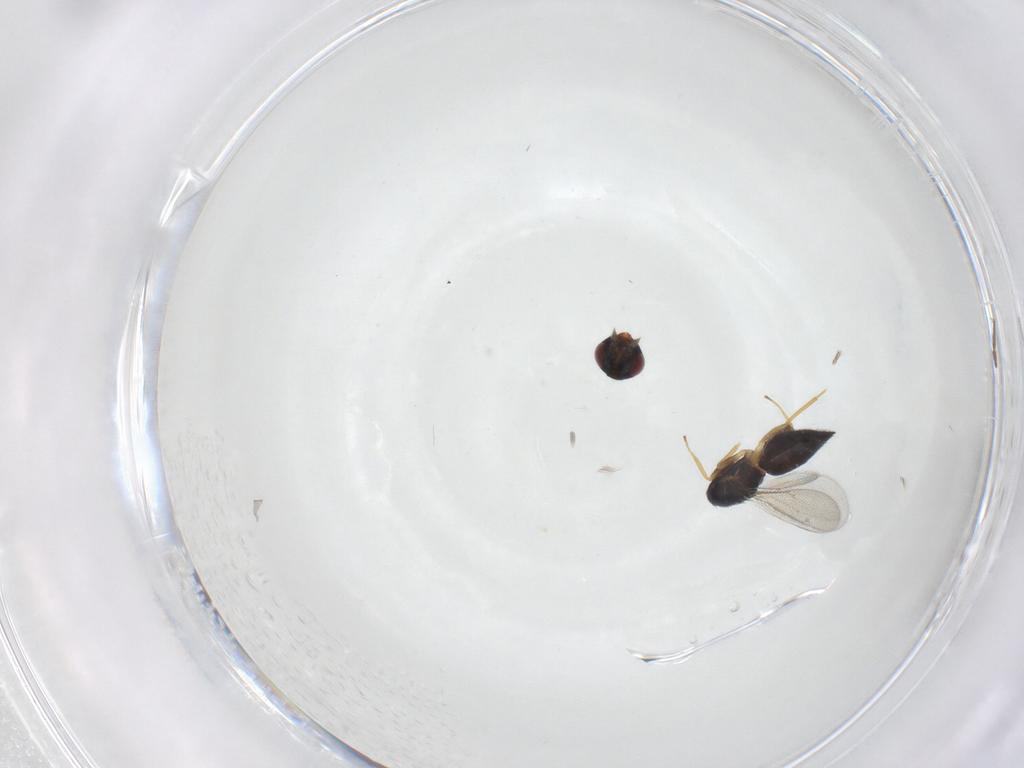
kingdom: Animalia
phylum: Arthropoda
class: Insecta
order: Hymenoptera
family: Eulophidae
